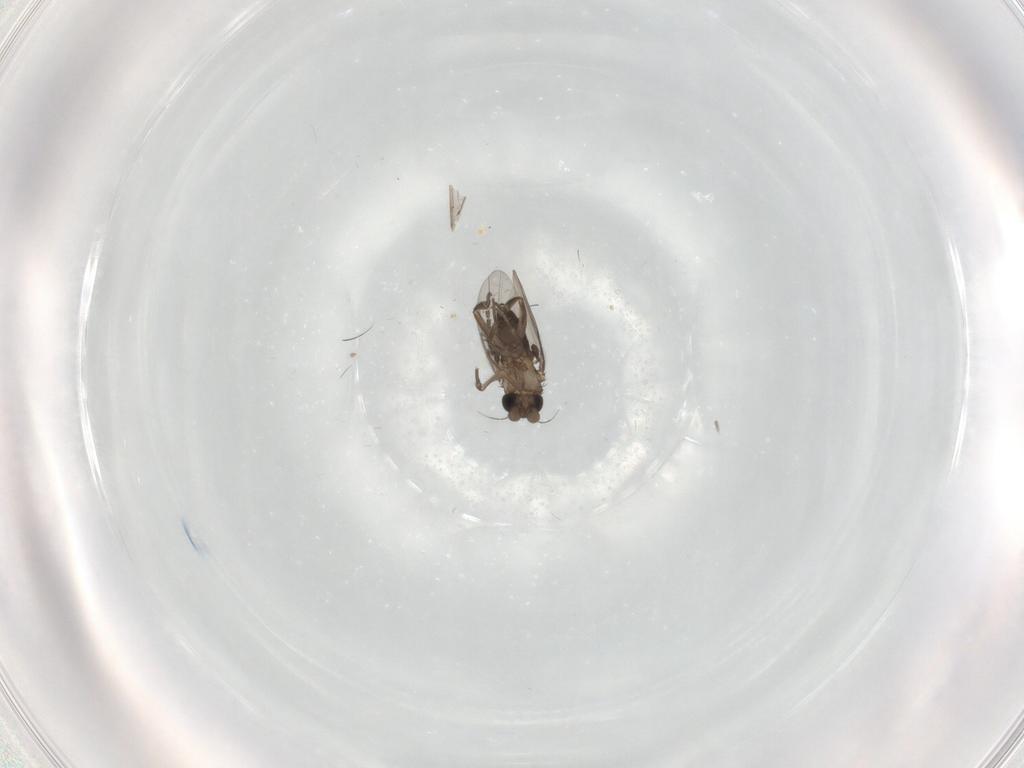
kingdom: Animalia
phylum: Arthropoda
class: Insecta
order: Diptera
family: Sciaridae
